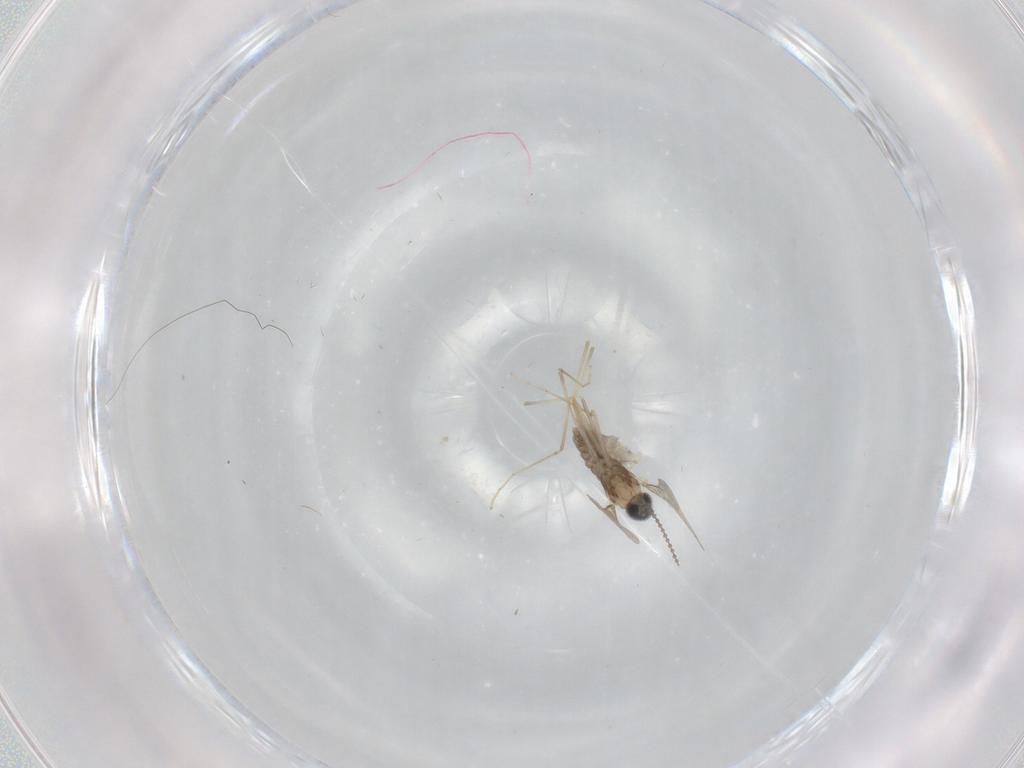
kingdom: Animalia
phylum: Arthropoda
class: Insecta
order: Diptera
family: Cecidomyiidae
